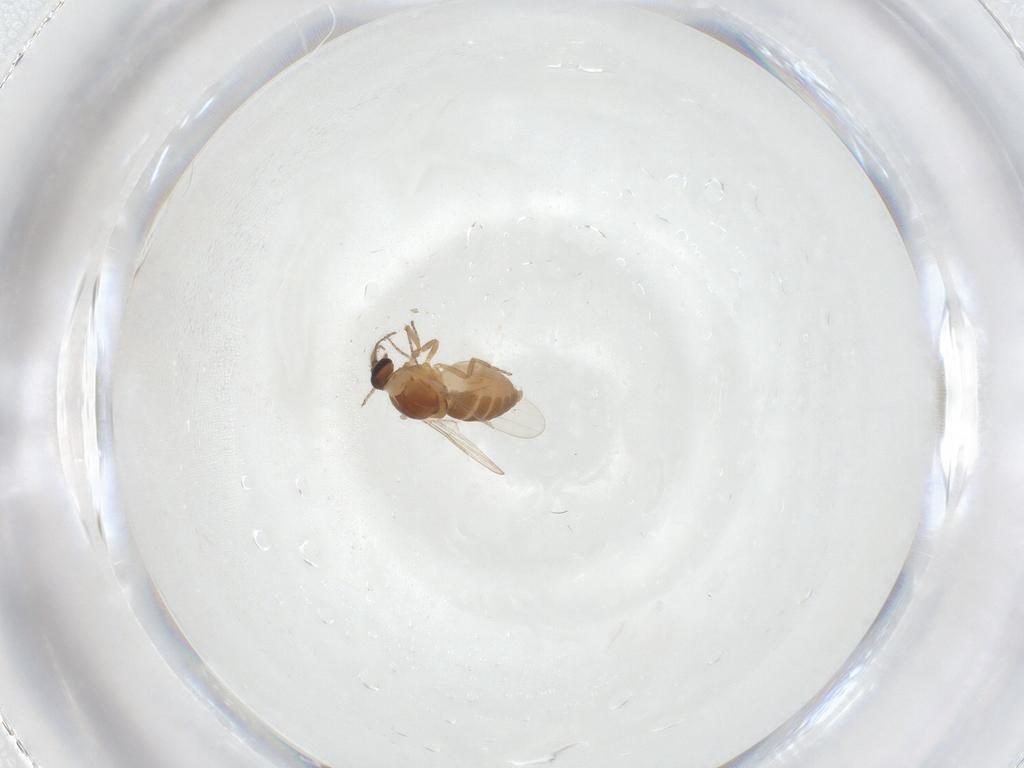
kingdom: Animalia
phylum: Arthropoda
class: Insecta
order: Diptera
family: Ceratopogonidae
